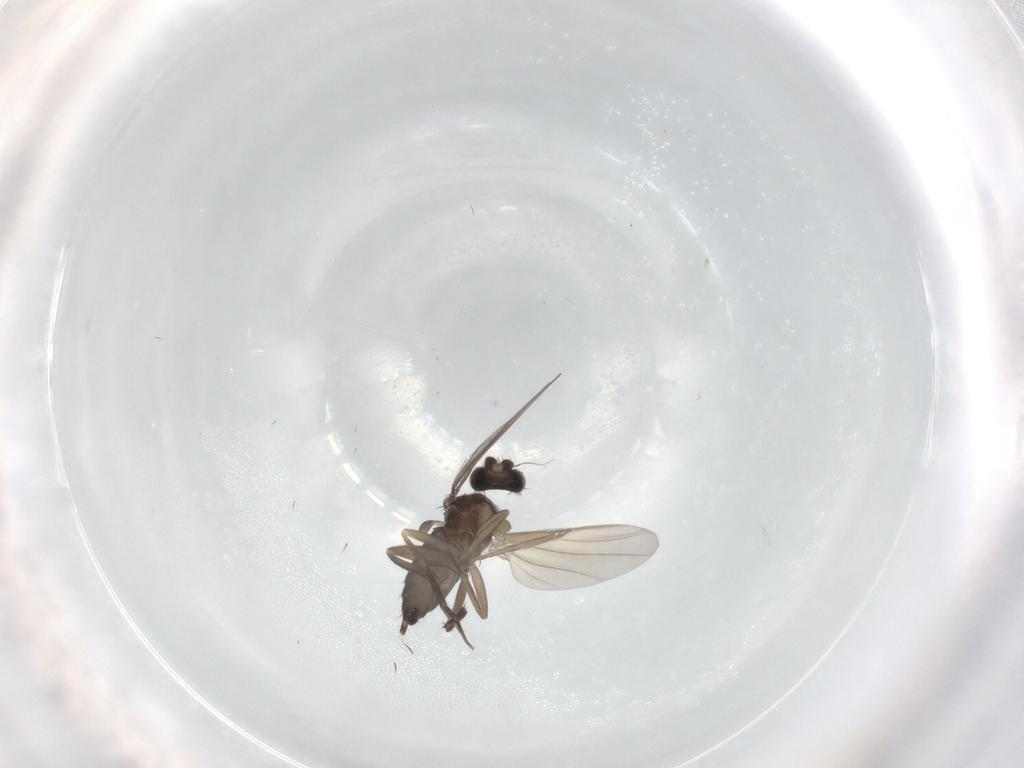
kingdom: Animalia
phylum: Arthropoda
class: Insecta
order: Diptera
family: Phoridae
